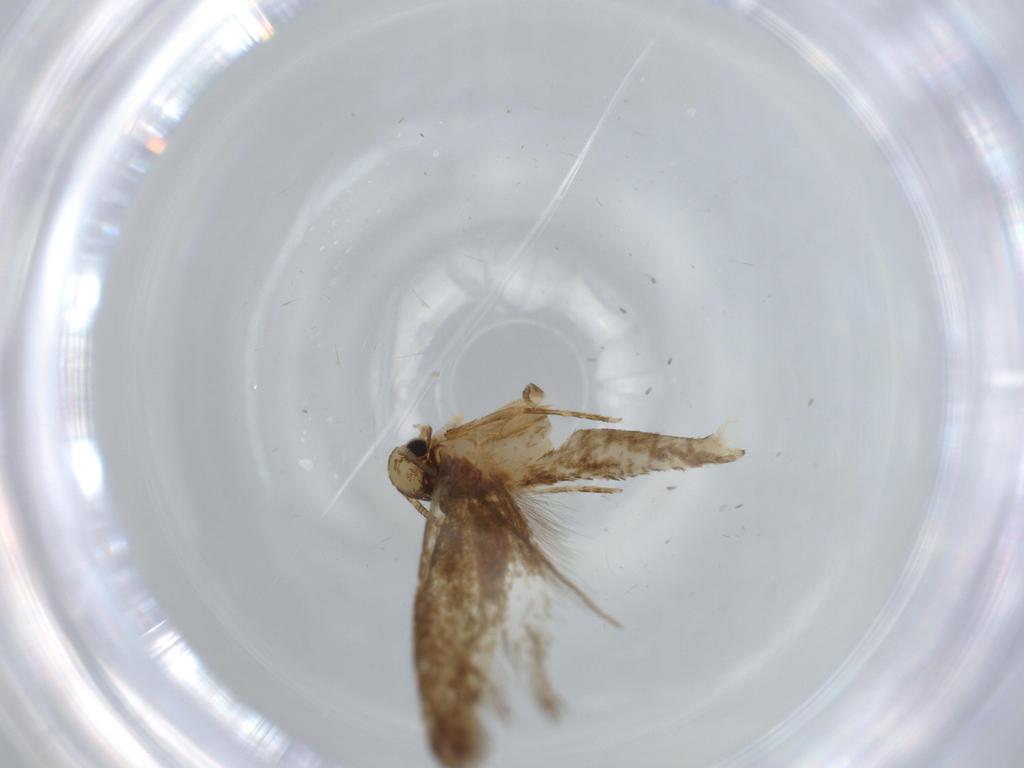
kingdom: Animalia
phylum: Arthropoda
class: Insecta
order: Lepidoptera
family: Tineidae
